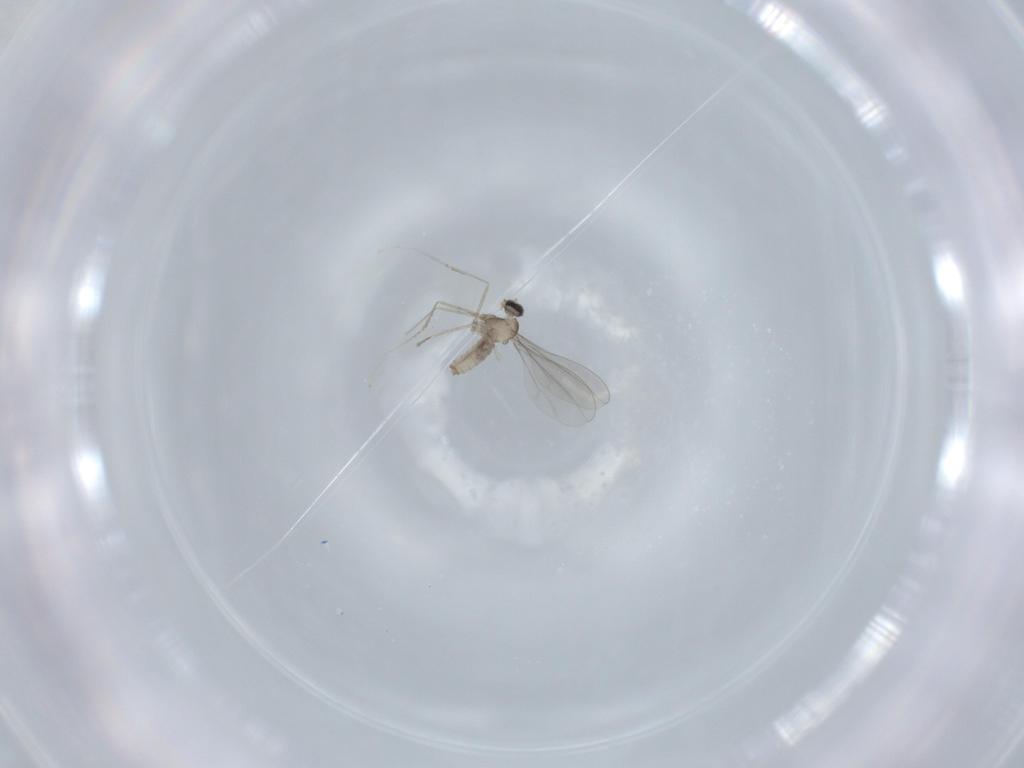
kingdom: Animalia
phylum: Arthropoda
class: Insecta
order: Diptera
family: Cecidomyiidae
